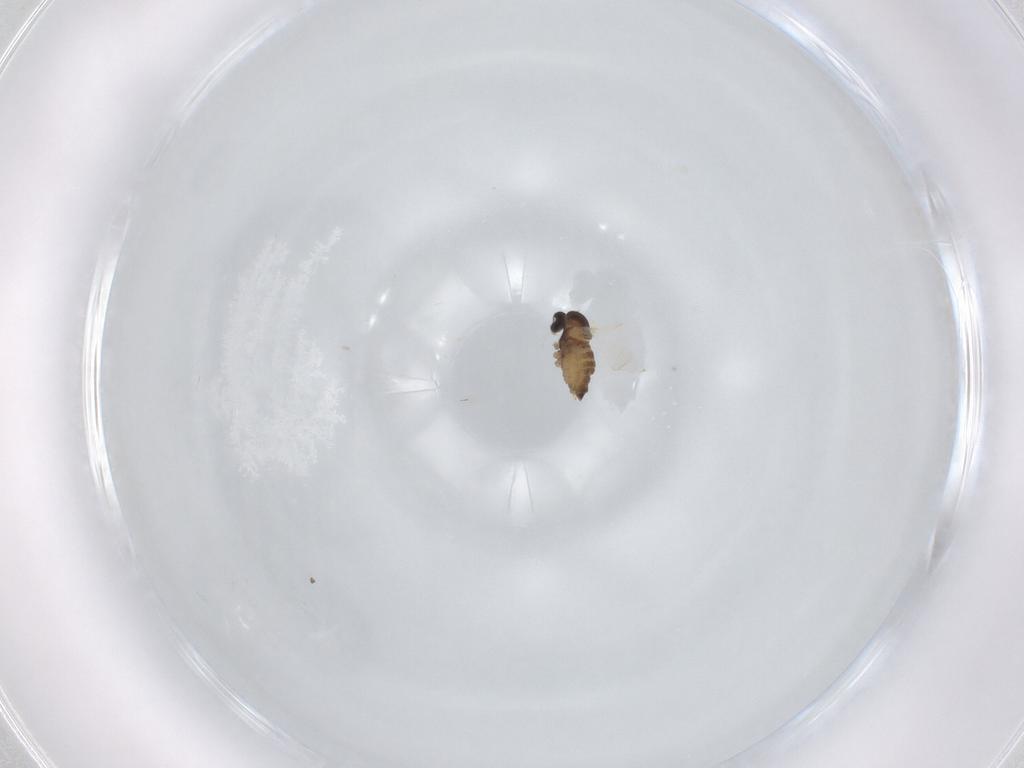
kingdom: Animalia
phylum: Arthropoda
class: Insecta
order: Diptera
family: Cecidomyiidae
